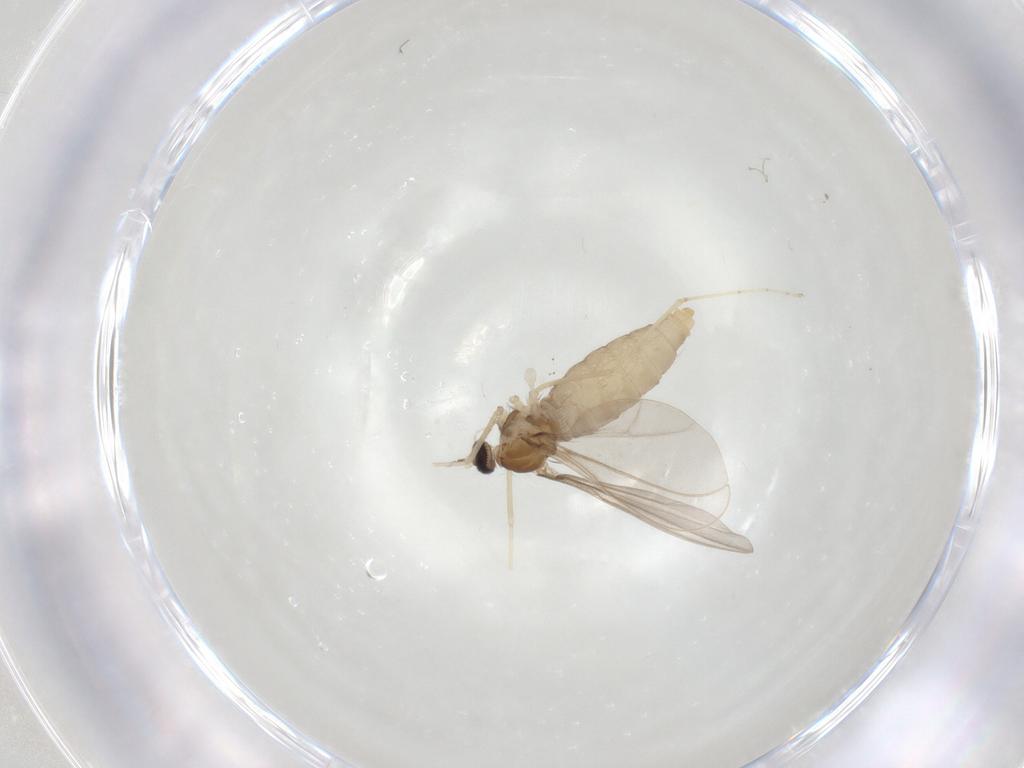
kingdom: Animalia
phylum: Arthropoda
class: Insecta
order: Diptera
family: Cecidomyiidae
